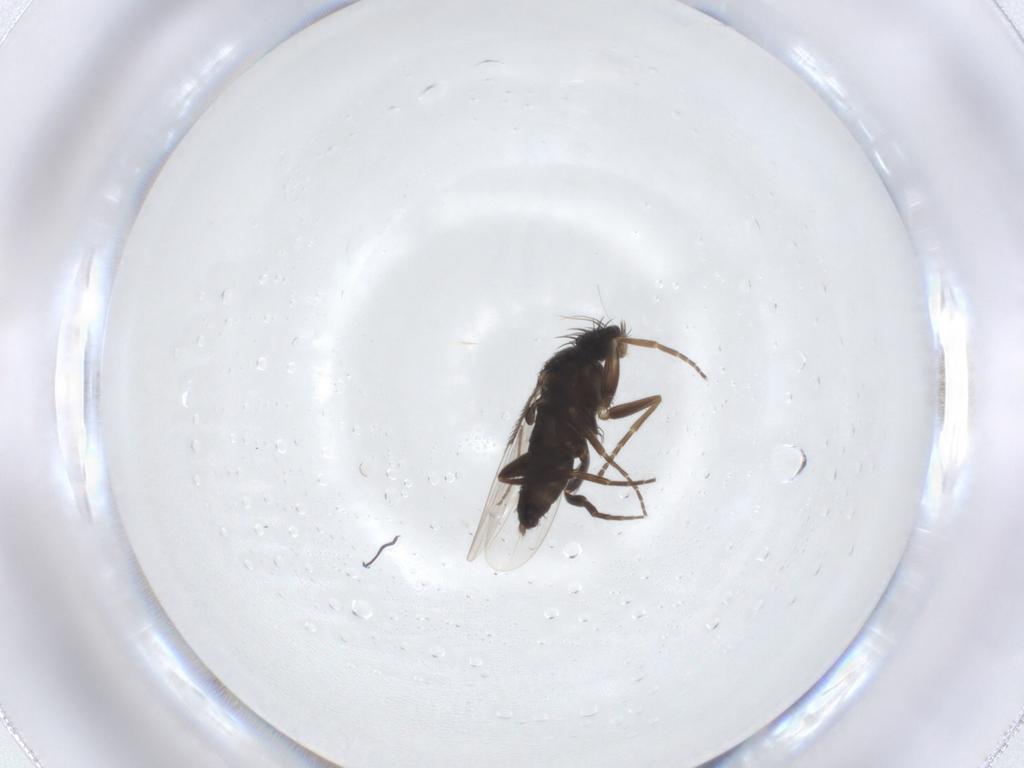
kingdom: Animalia
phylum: Arthropoda
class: Insecta
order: Diptera
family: Phoridae
